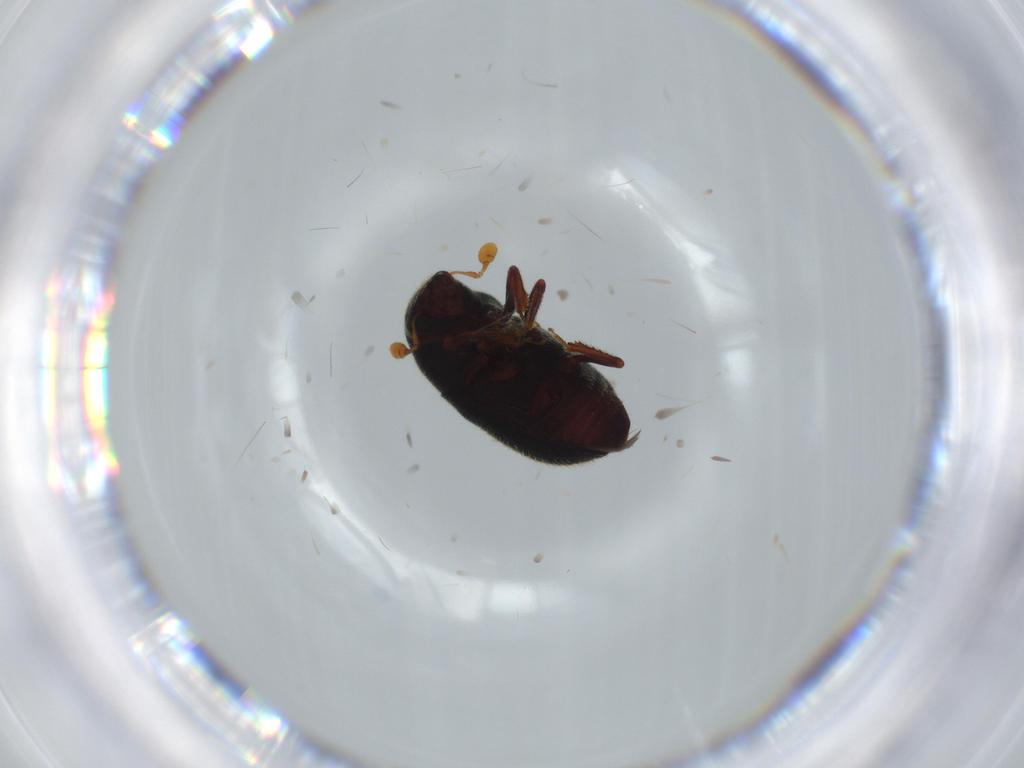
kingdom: Animalia
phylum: Arthropoda
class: Insecta
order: Coleoptera
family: Curculionidae
